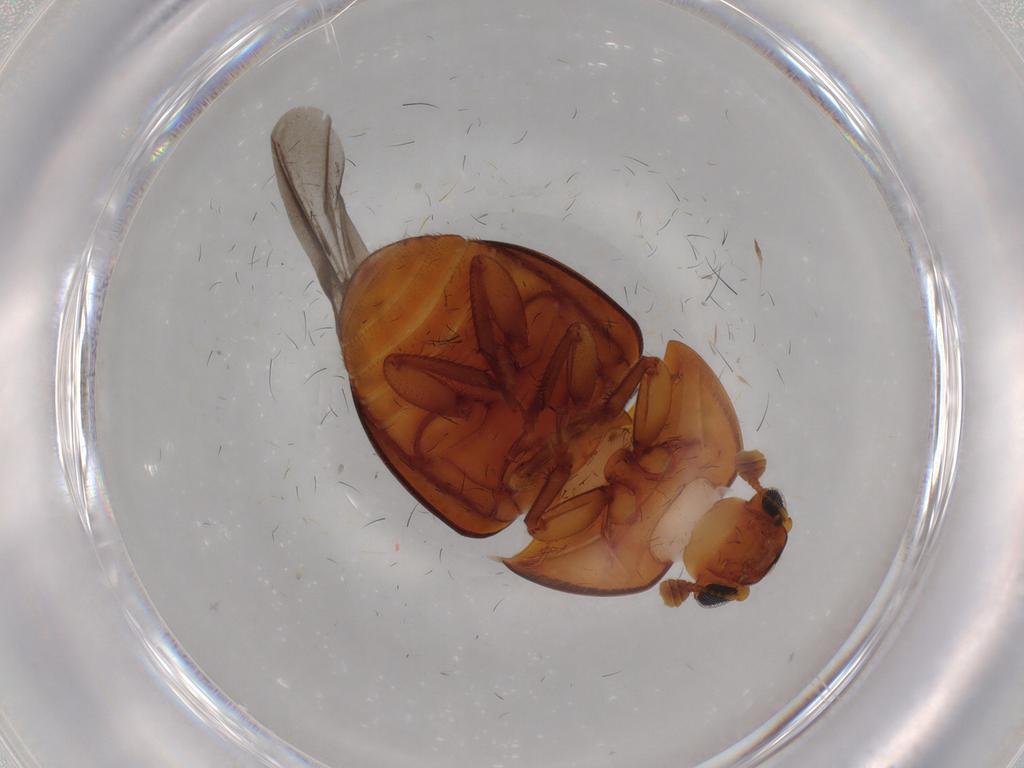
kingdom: Animalia
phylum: Arthropoda
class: Insecta
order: Coleoptera
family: Nitidulidae
